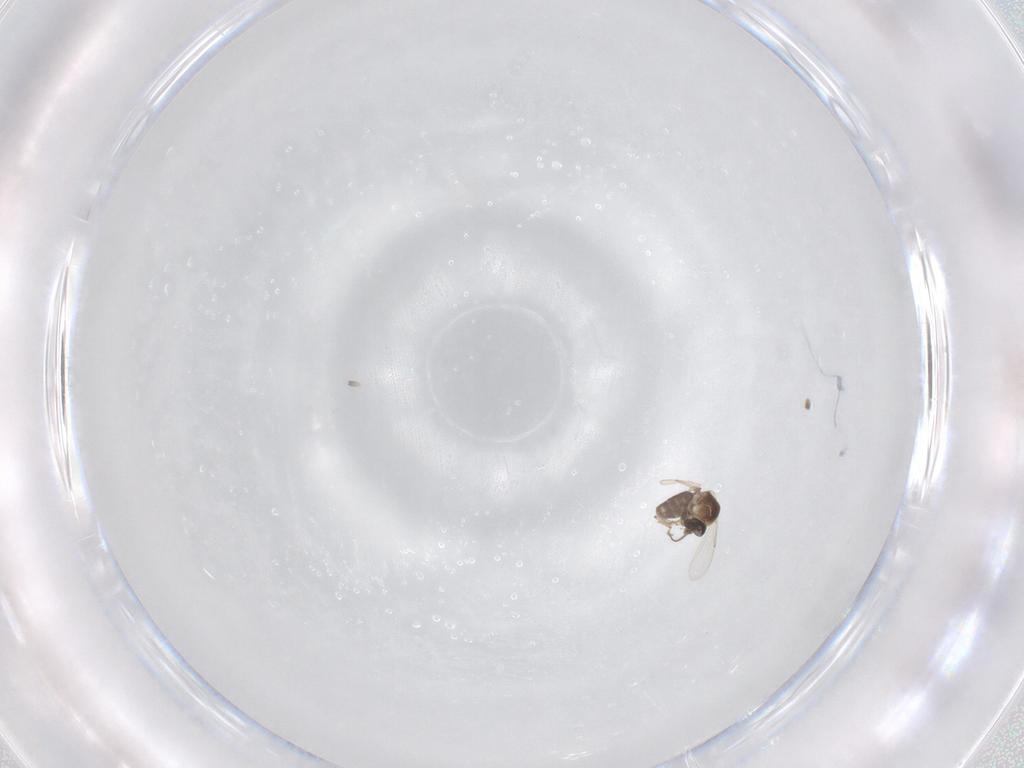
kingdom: Animalia
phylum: Arthropoda
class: Insecta
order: Diptera
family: Ceratopogonidae
